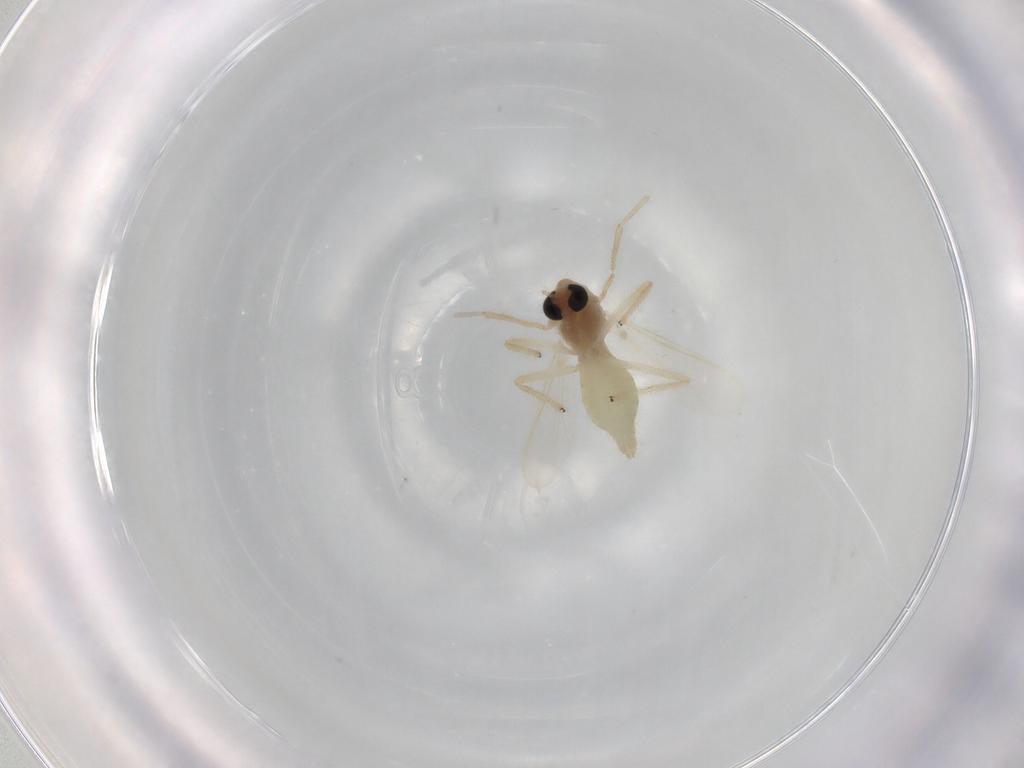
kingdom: Animalia
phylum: Arthropoda
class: Insecta
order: Diptera
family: Chironomidae
